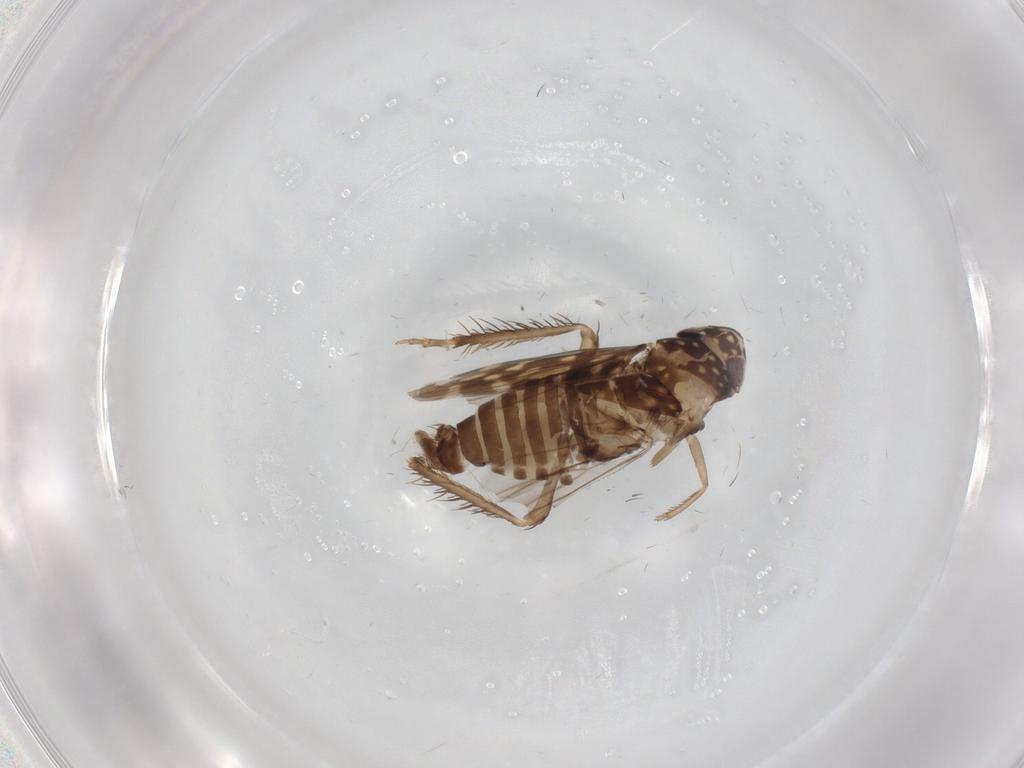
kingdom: Animalia
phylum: Arthropoda
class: Insecta
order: Hemiptera
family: Cicadellidae
